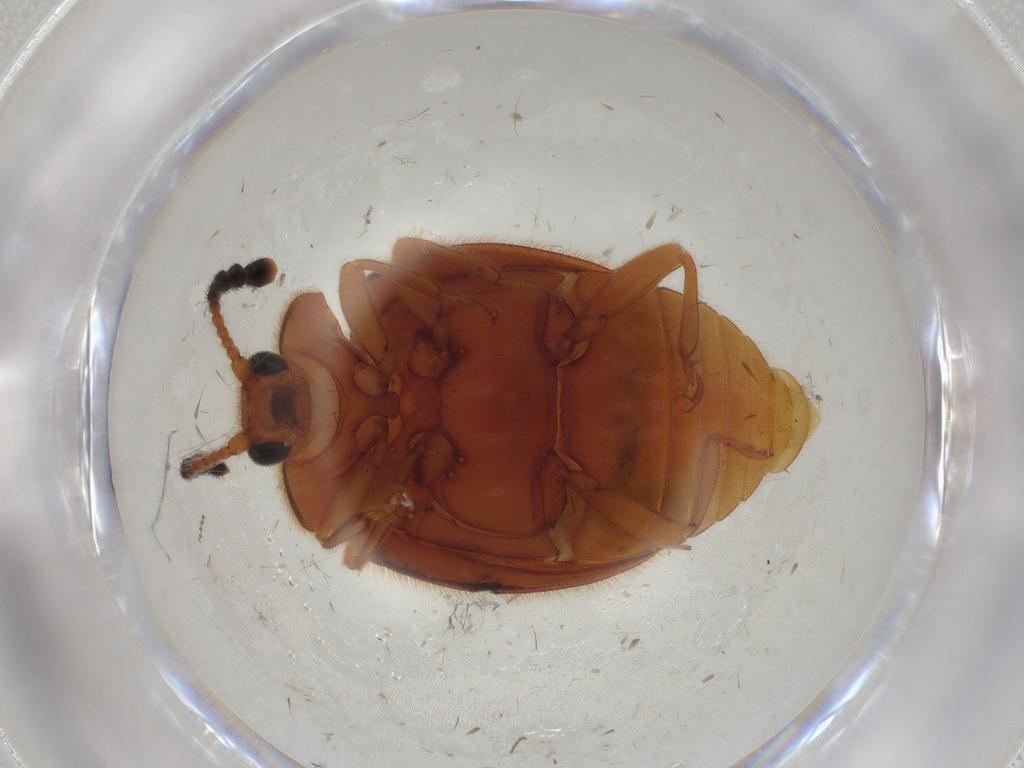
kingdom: Animalia
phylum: Arthropoda
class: Insecta
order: Coleoptera
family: Endomychidae
